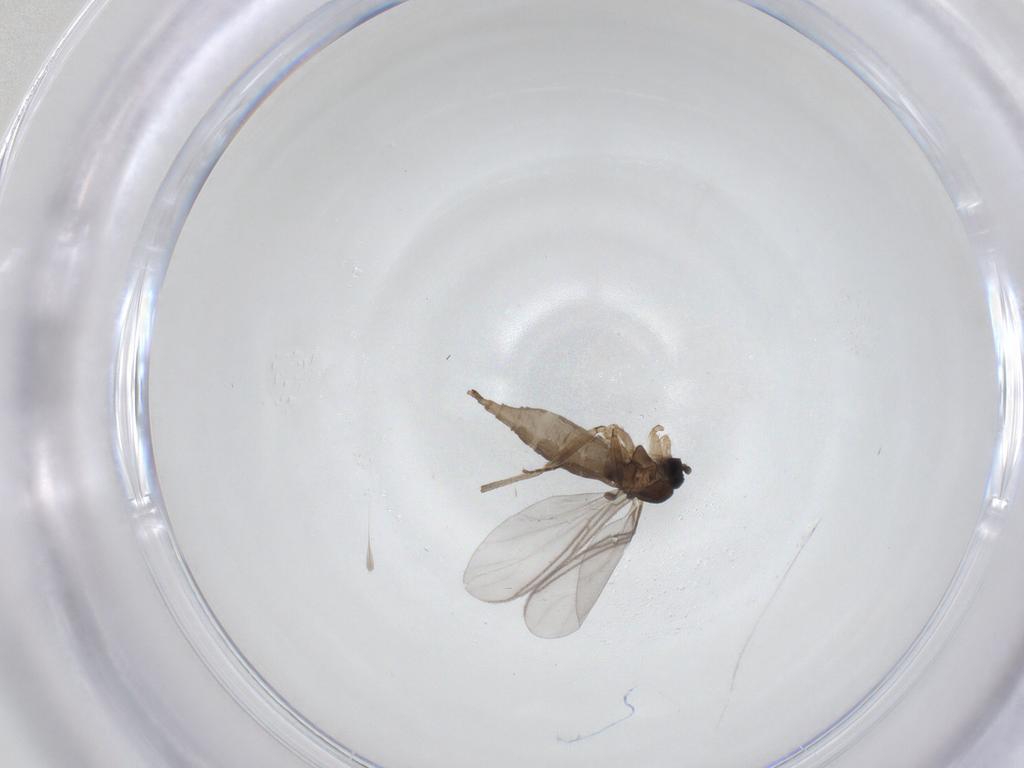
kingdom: Animalia
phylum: Arthropoda
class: Insecta
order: Diptera
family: Sciaridae
